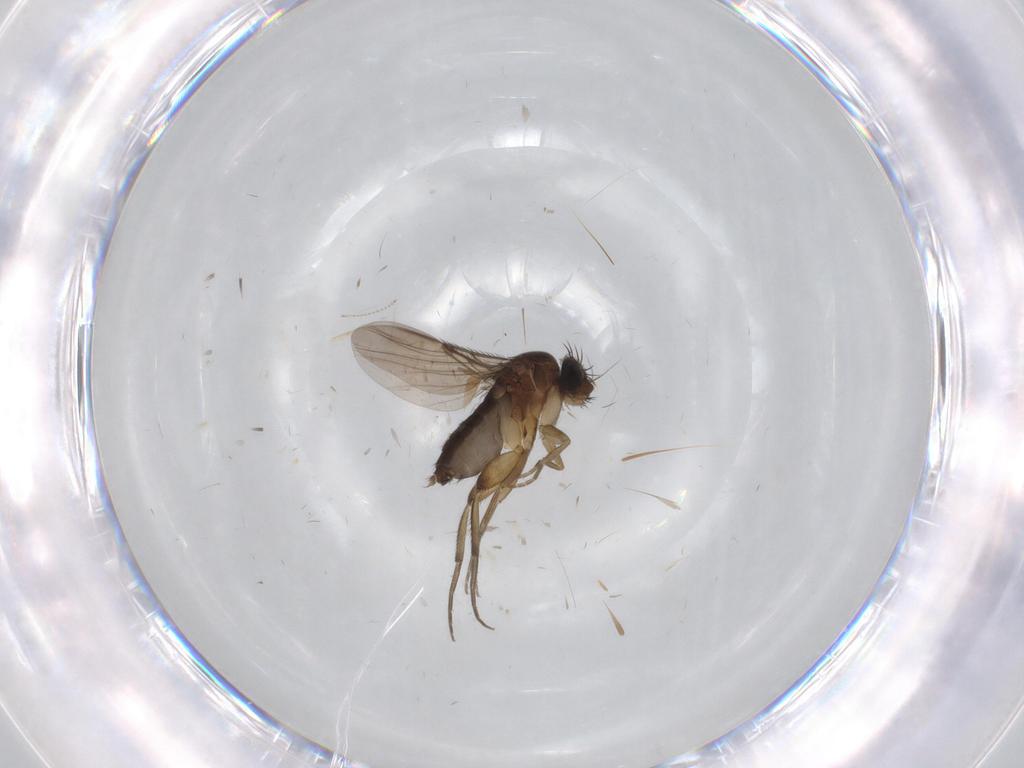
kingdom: Animalia
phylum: Arthropoda
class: Insecta
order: Diptera
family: Phoridae
